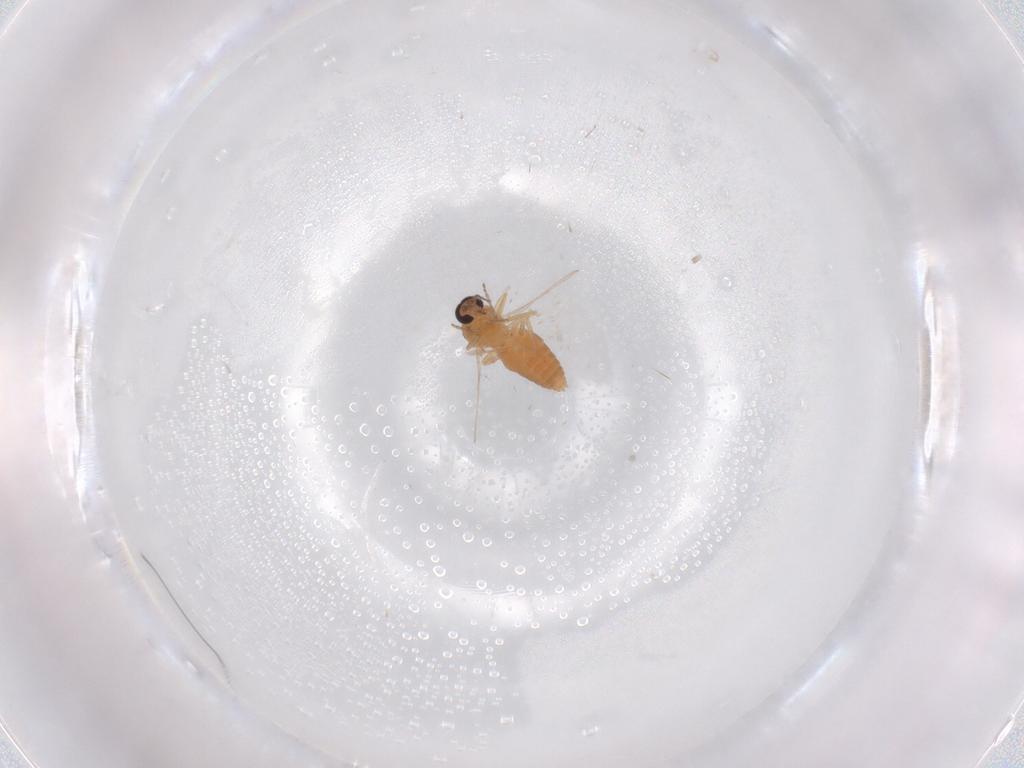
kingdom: Animalia
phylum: Arthropoda
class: Insecta
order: Diptera
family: Ceratopogonidae
